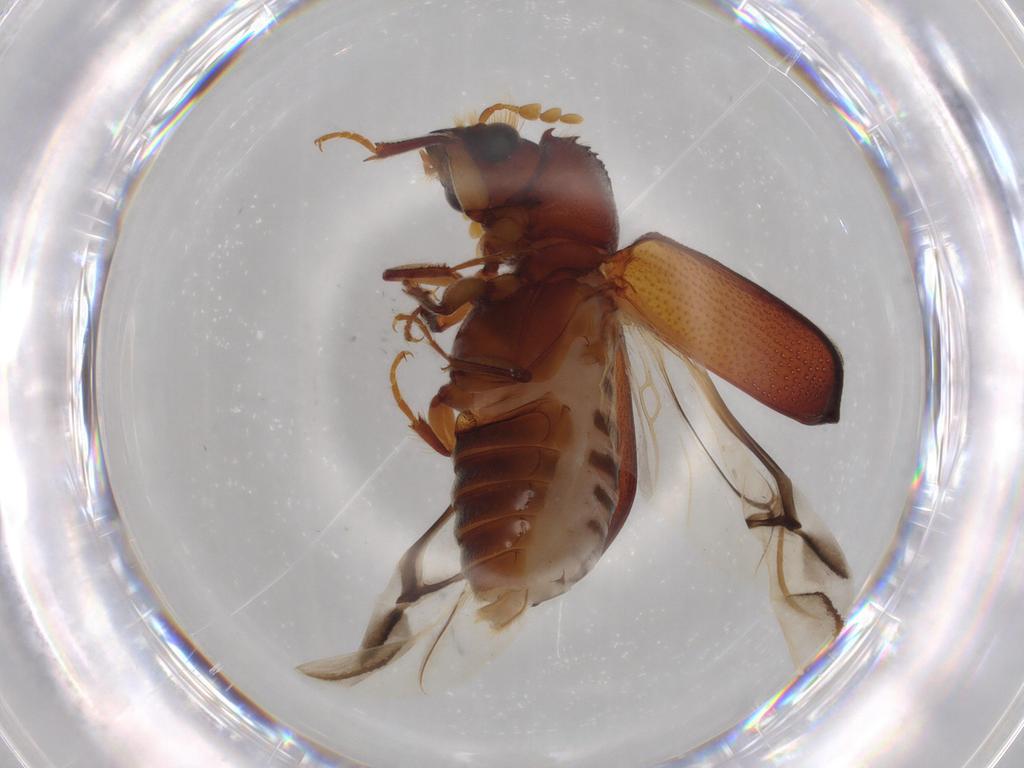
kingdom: Animalia
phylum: Arthropoda
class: Insecta
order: Coleoptera
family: Bostrichidae
